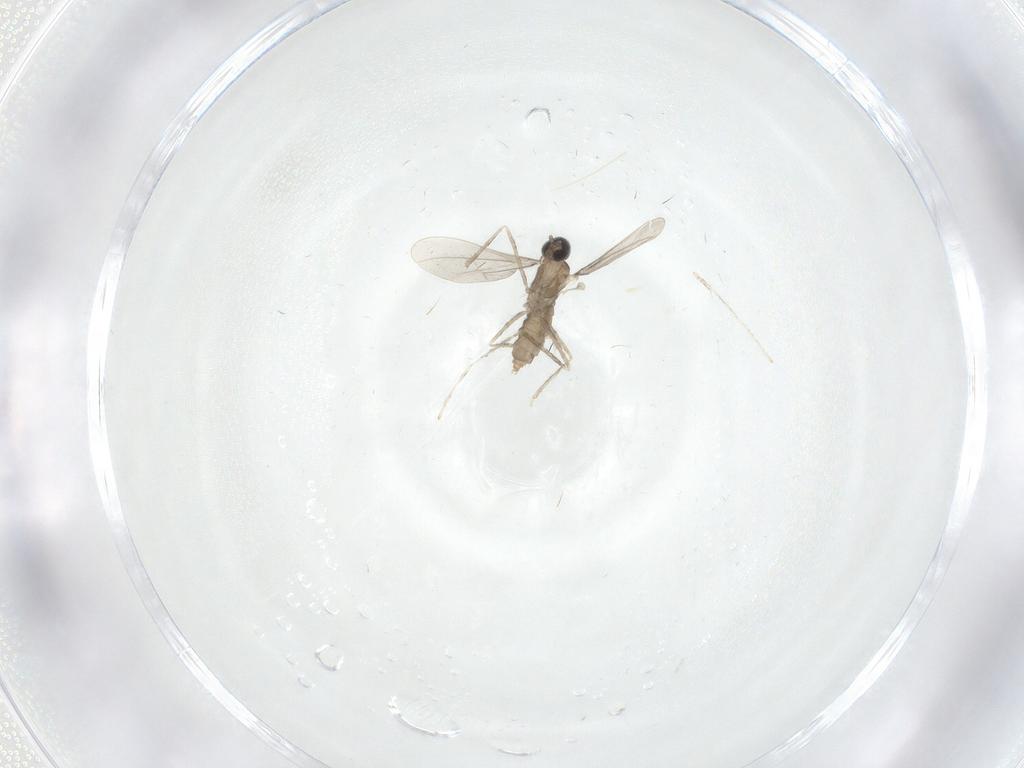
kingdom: Animalia
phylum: Arthropoda
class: Insecta
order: Diptera
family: Cecidomyiidae
